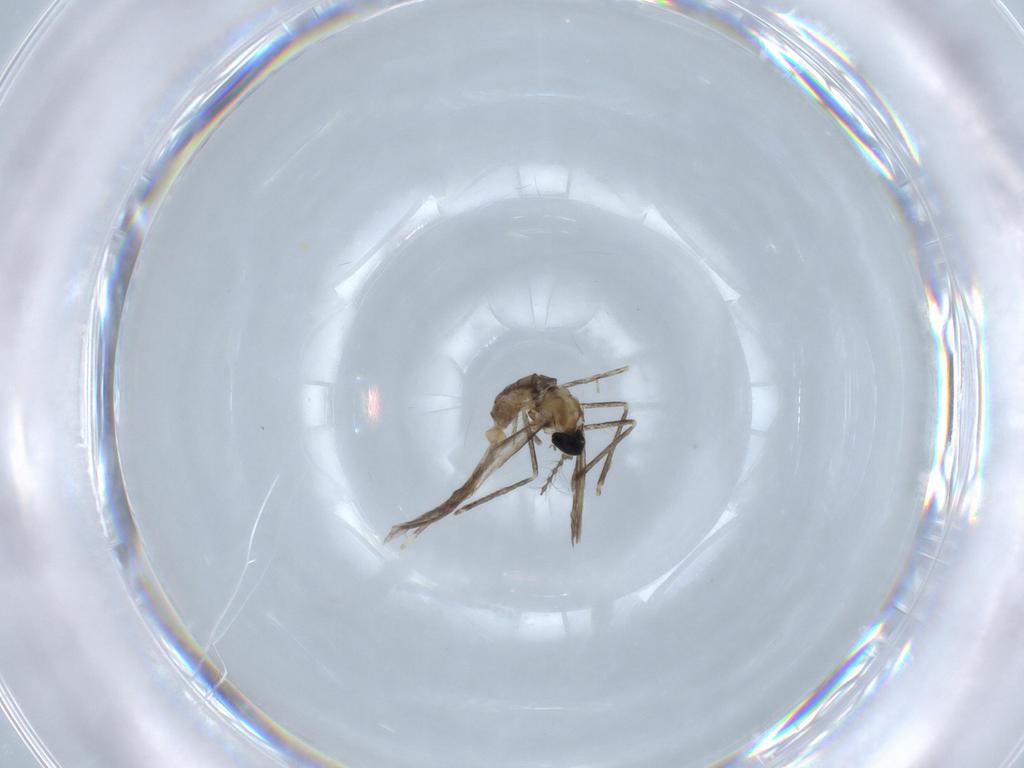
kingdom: Animalia
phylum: Arthropoda
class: Insecta
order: Diptera
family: Cecidomyiidae
